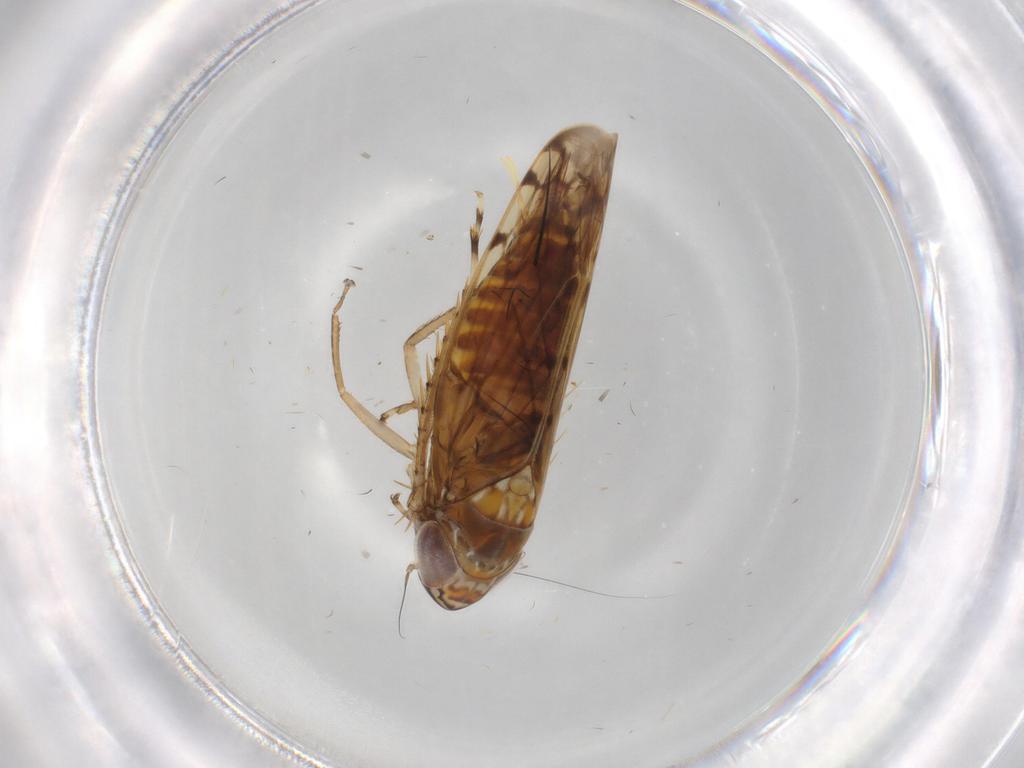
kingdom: Animalia
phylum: Arthropoda
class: Insecta
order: Hemiptera
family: Cicadellidae
